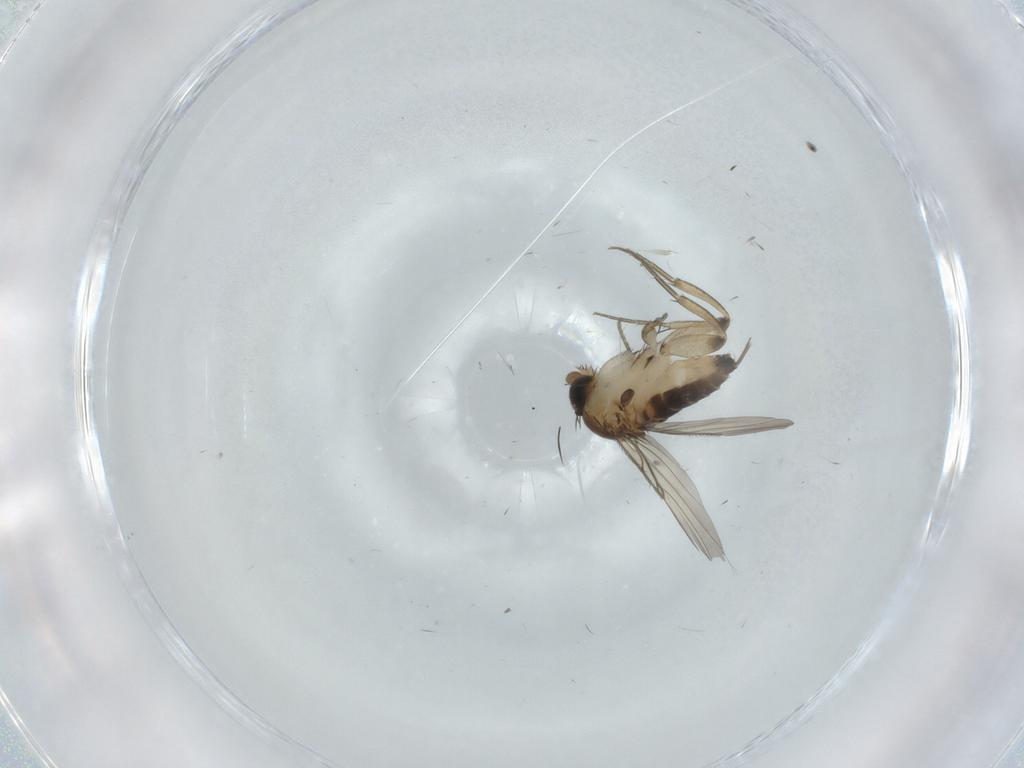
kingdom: Animalia
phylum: Arthropoda
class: Insecta
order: Diptera
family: Phoridae
